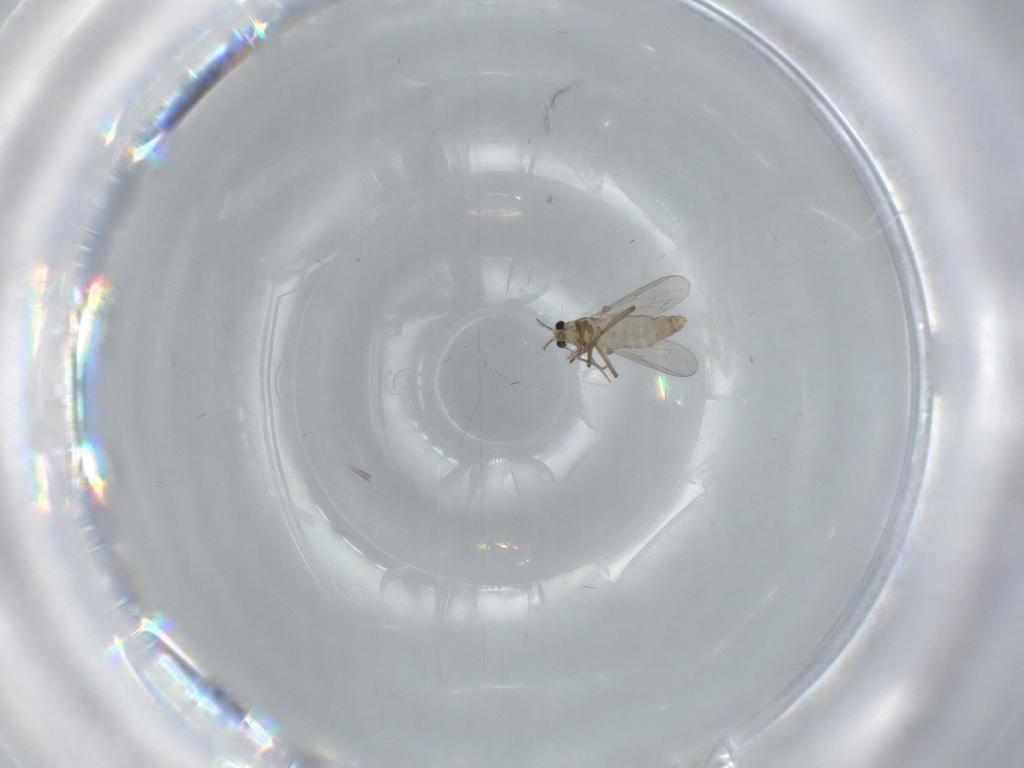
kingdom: Animalia
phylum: Arthropoda
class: Insecta
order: Diptera
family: Chironomidae
